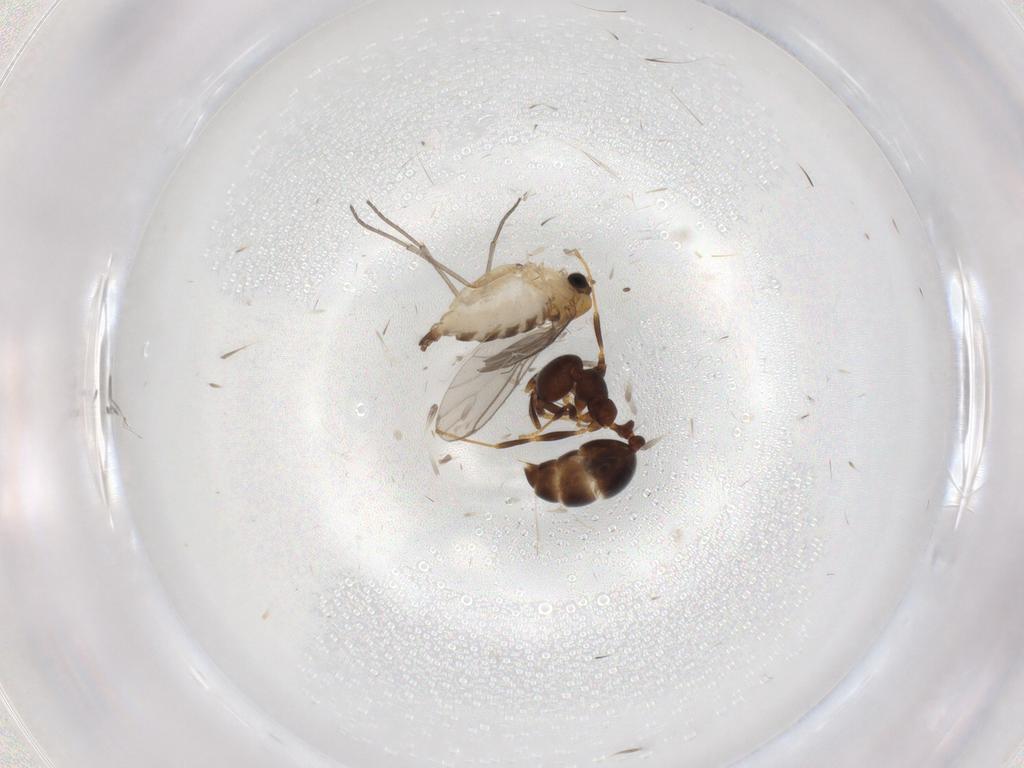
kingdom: Animalia
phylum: Arthropoda
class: Insecta
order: Diptera
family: Cecidomyiidae
